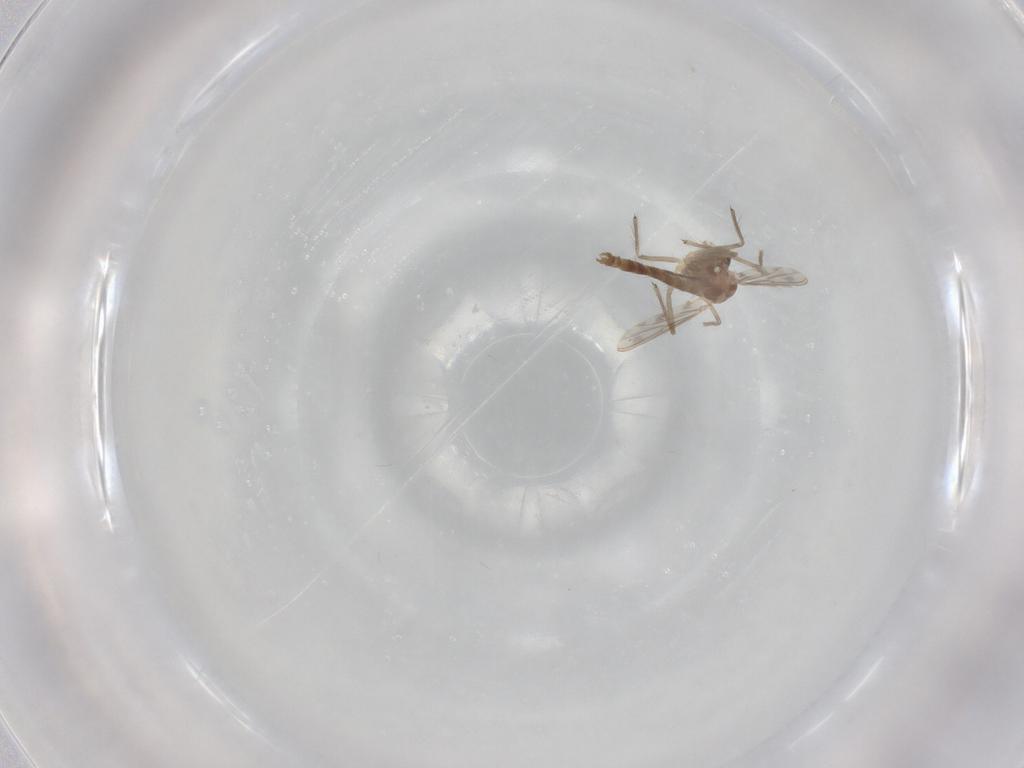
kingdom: Animalia
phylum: Arthropoda
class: Insecta
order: Diptera
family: Chironomidae
